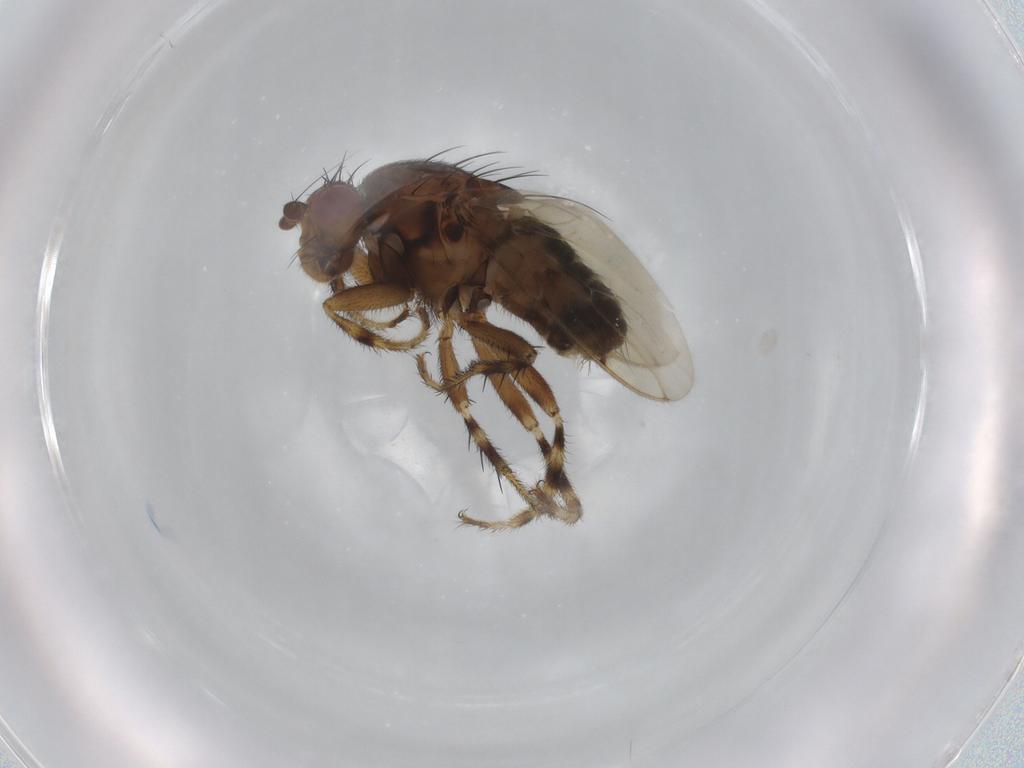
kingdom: Animalia
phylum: Arthropoda
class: Insecta
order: Diptera
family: Sphaeroceridae
